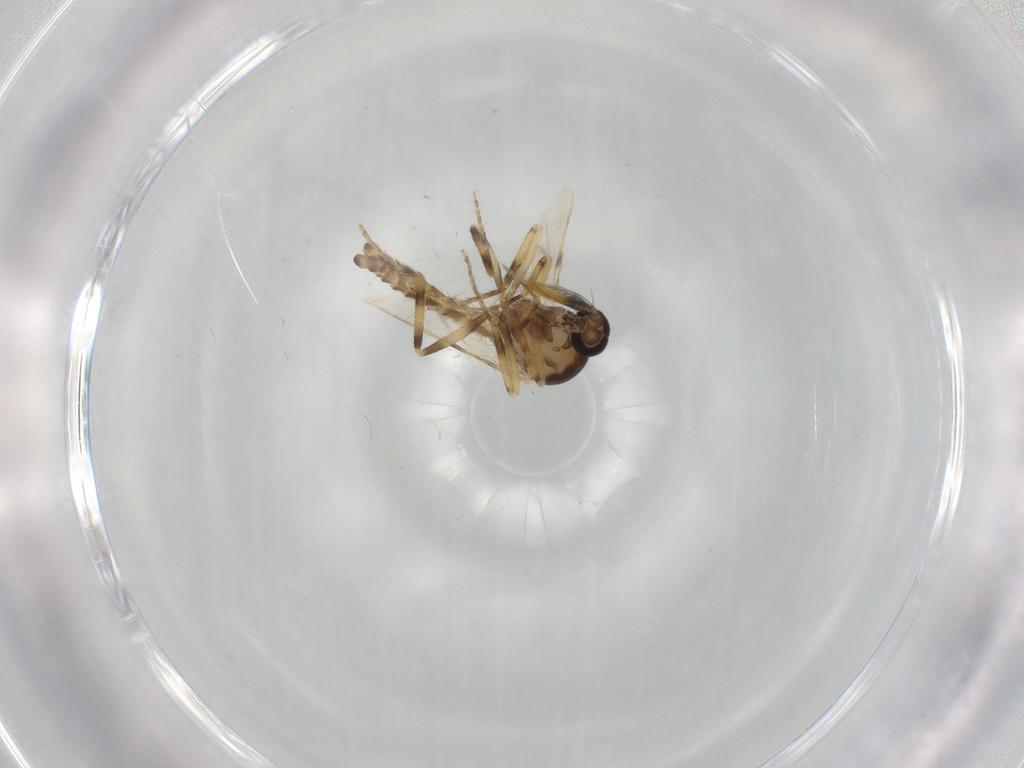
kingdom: Animalia
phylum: Arthropoda
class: Insecta
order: Diptera
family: Ceratopogonidae
